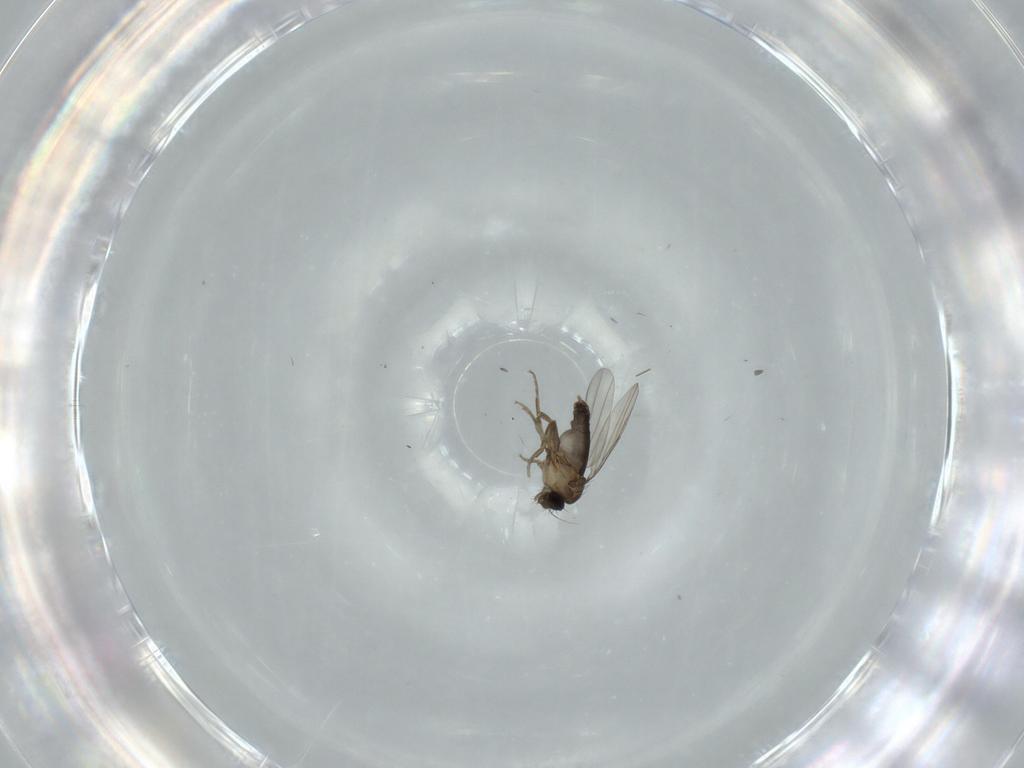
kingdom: Animalia
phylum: Arthropoda
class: Insecta
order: Diptera
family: Phoridae
